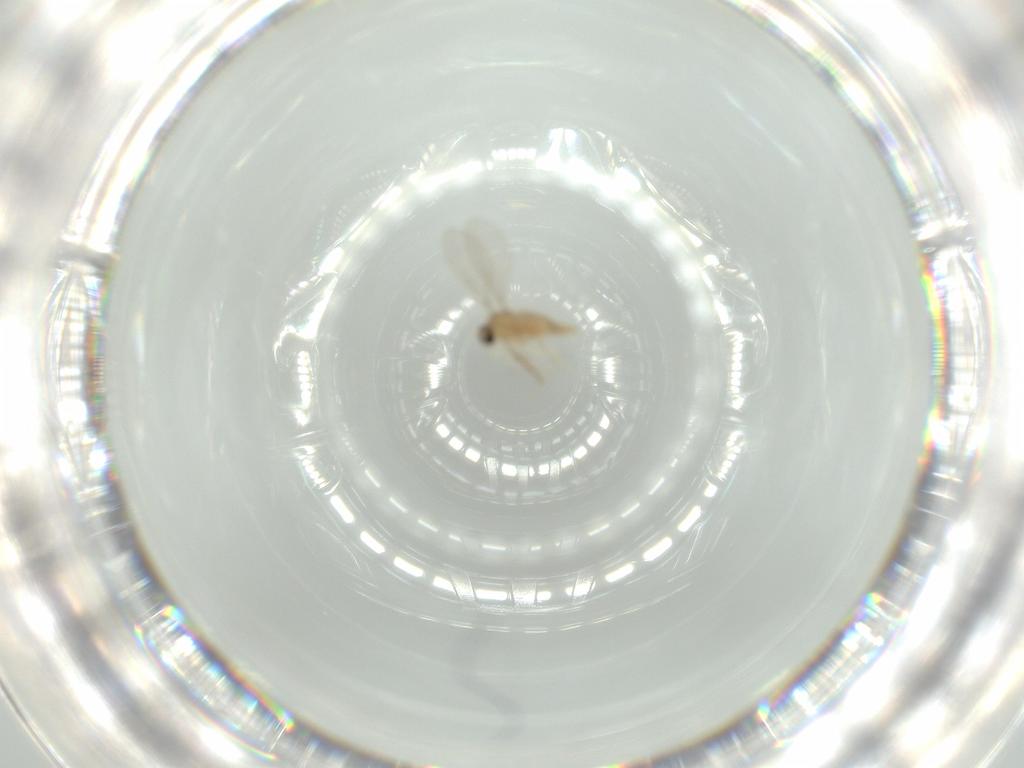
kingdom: Animalia
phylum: Arthropoda
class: Insecta
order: Diptera
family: Cecidomyiidae
